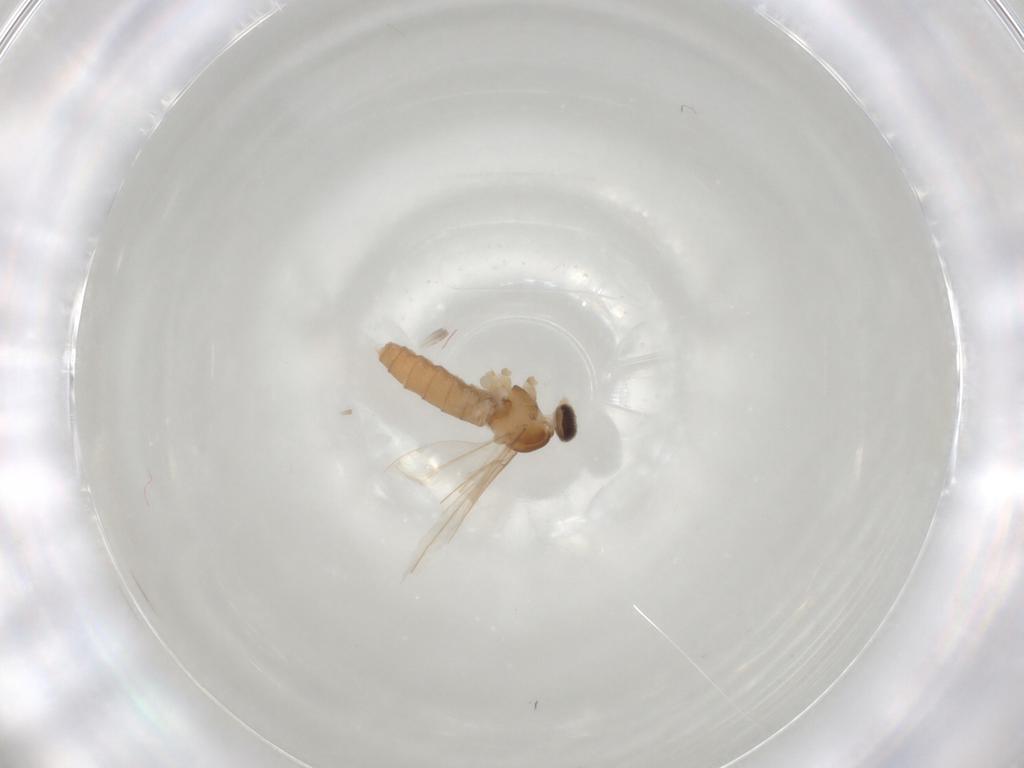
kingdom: Animalia
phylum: Arthropoda
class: Insecta
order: Diptera
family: Cecidomyiidae
